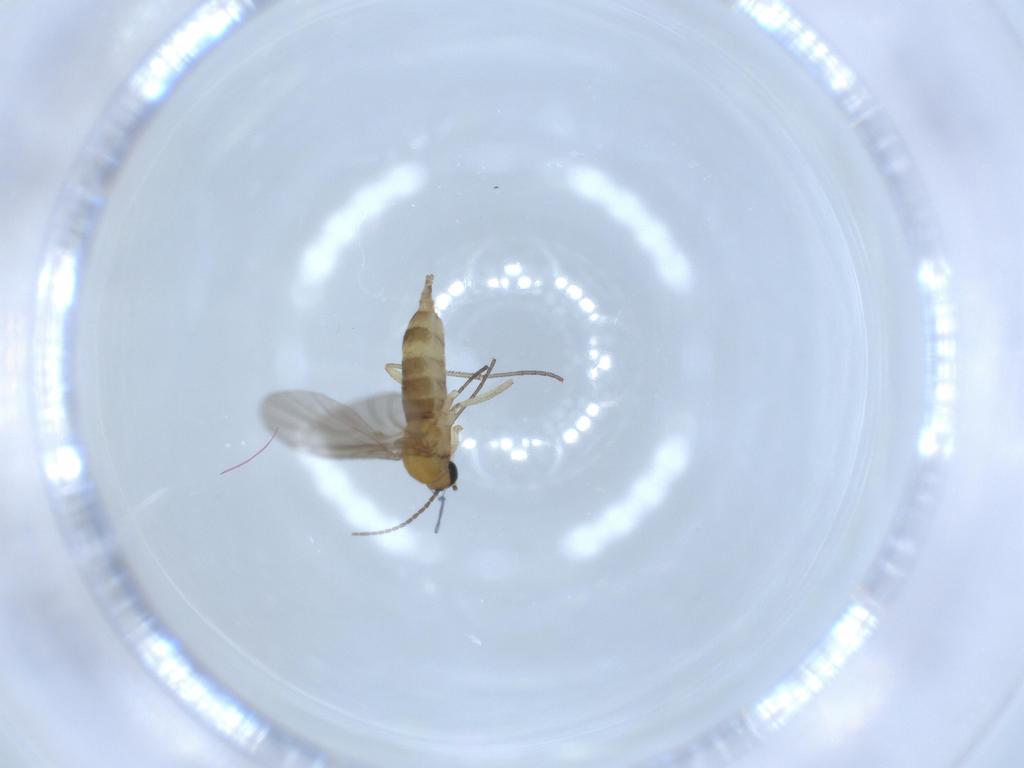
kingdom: Animalia
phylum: Arthropoda
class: Insecta
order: Diptera
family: Sciaridae
